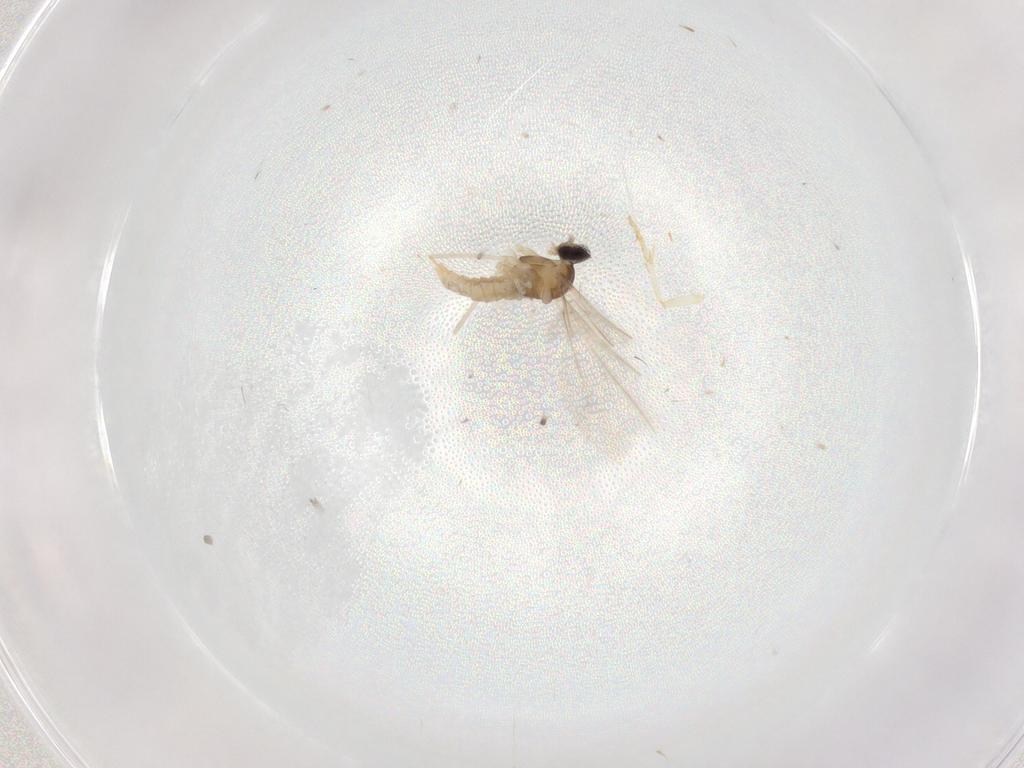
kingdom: Animalia
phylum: Arthropoda
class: Insecta
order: Diptera
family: Cecidomyiidae
